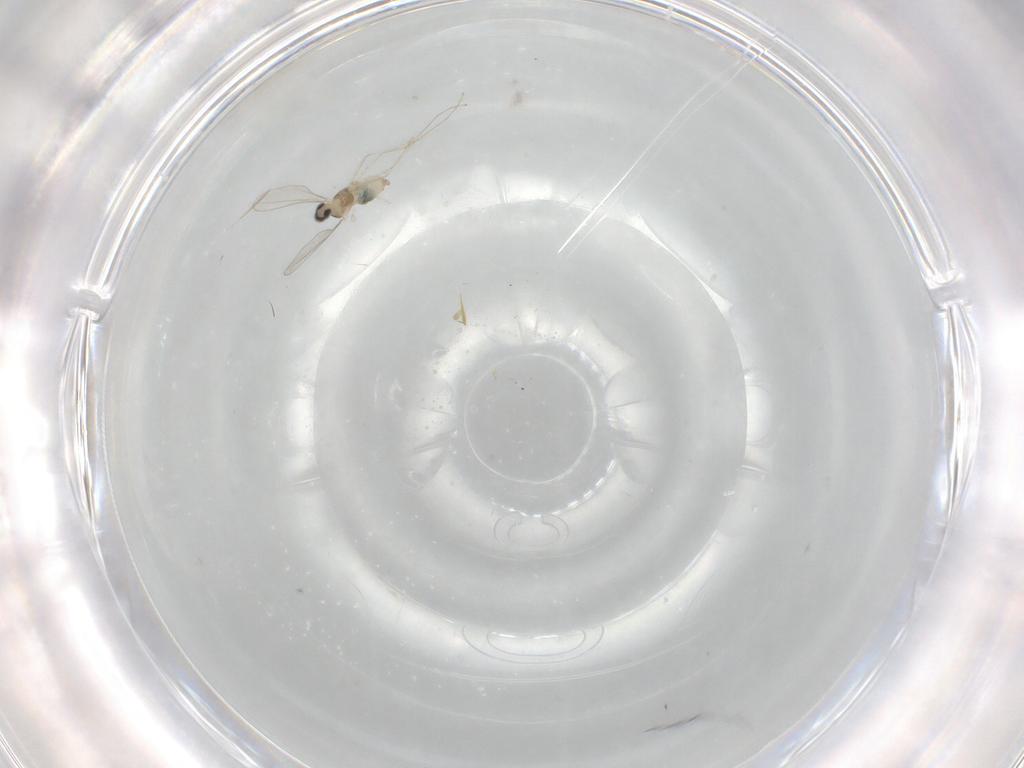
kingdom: Animalia
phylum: Arthropoda
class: Insecta
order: Diptera
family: Cecidomyiidae
